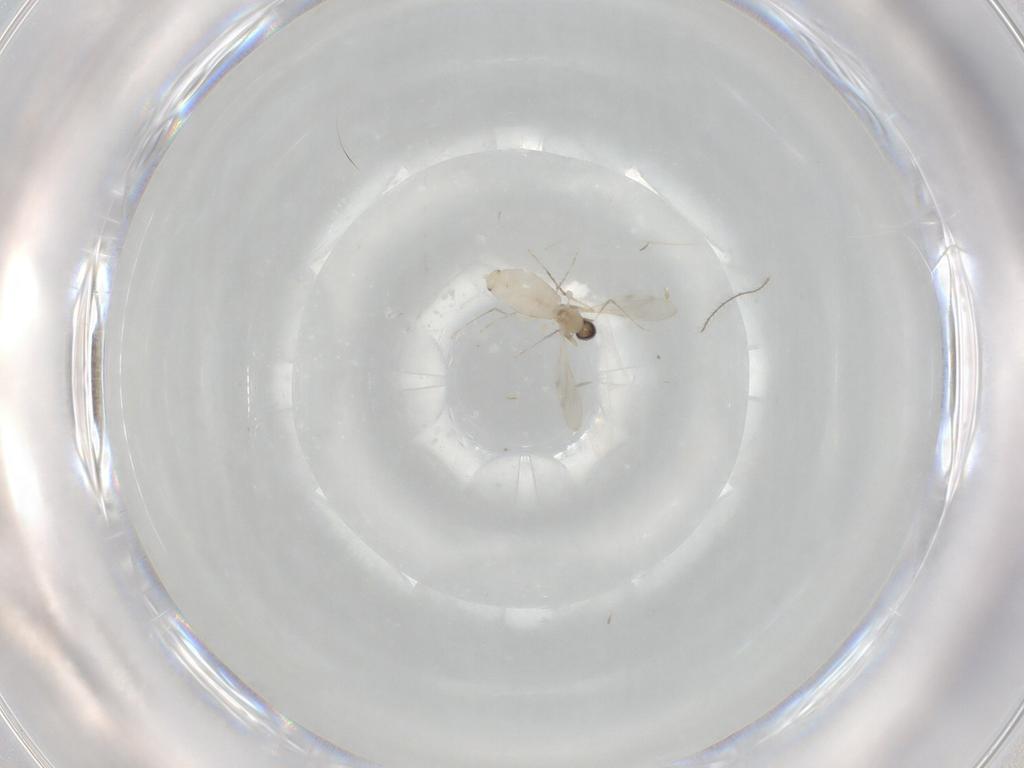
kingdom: Animalia
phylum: Arthropoda
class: Insecta
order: Diptera
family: Cecidomyiidae
